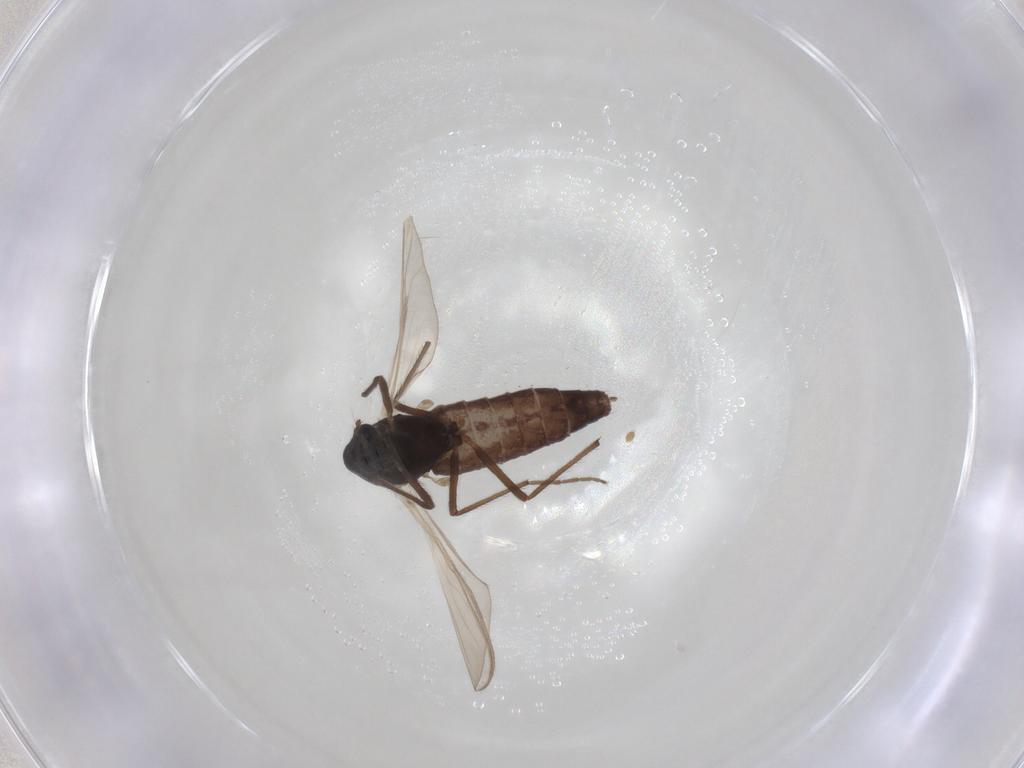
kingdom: Animalia
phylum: Arthropoda
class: Insecta
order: Diptera
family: Chironomidae
